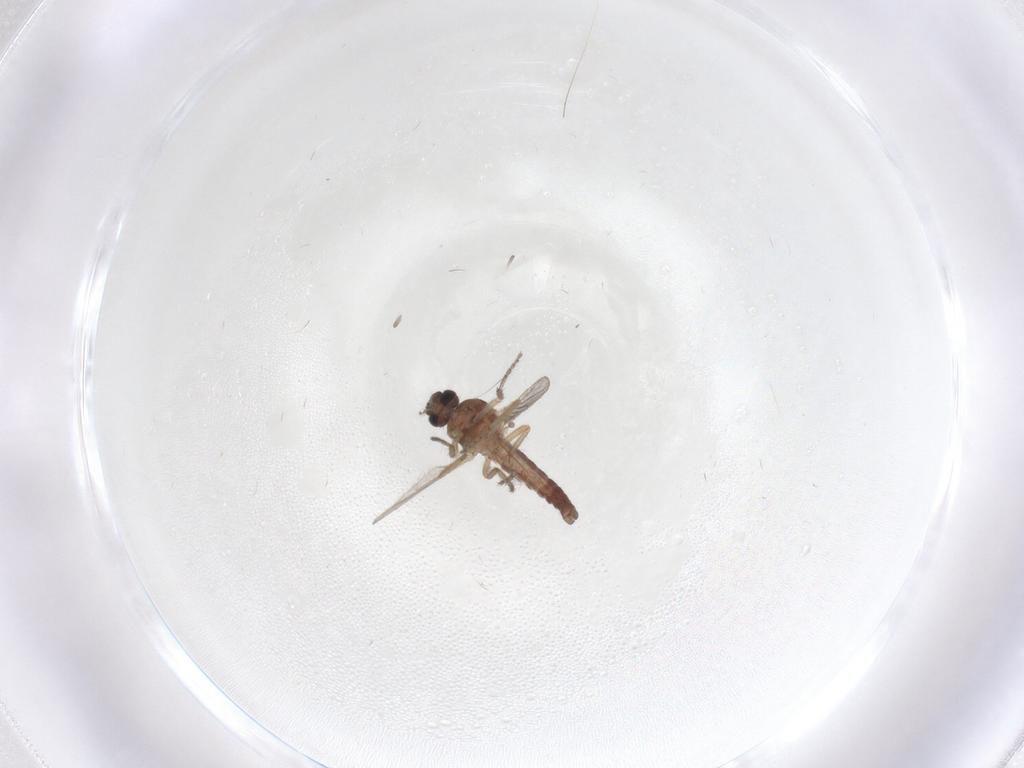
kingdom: Animalia
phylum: Arthropoda
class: Insecta
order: Diptera
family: Ceratopogonidae
